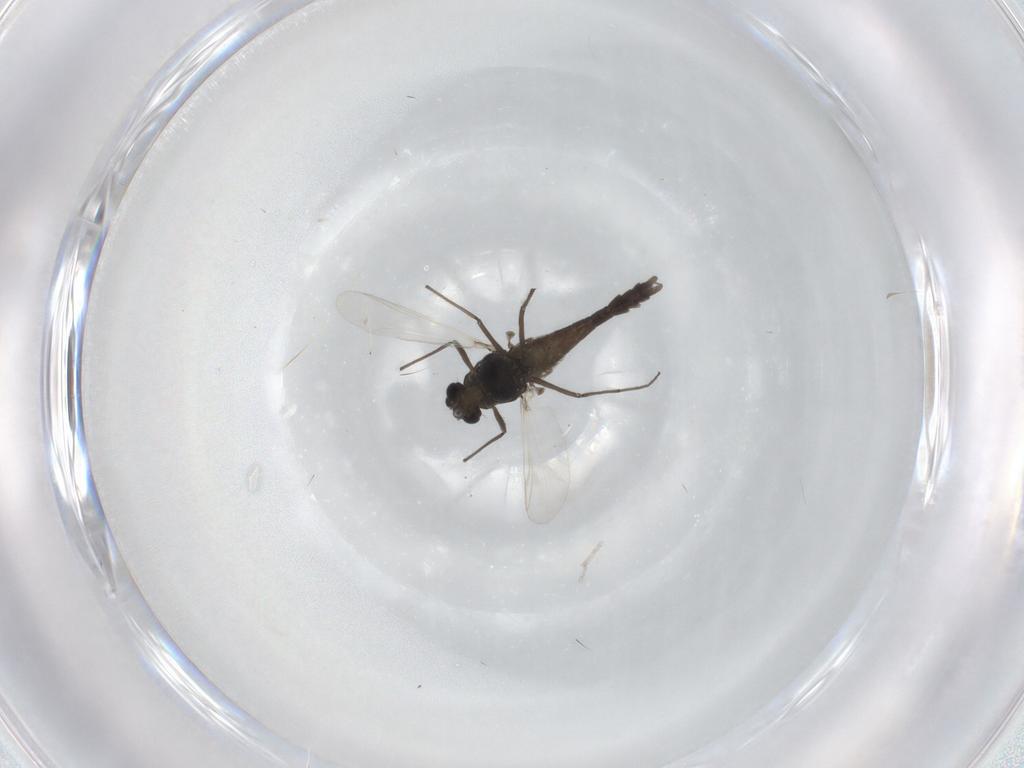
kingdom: Animalia
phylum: Arthropoda
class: Insecta
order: Diptera
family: Chironomidae
